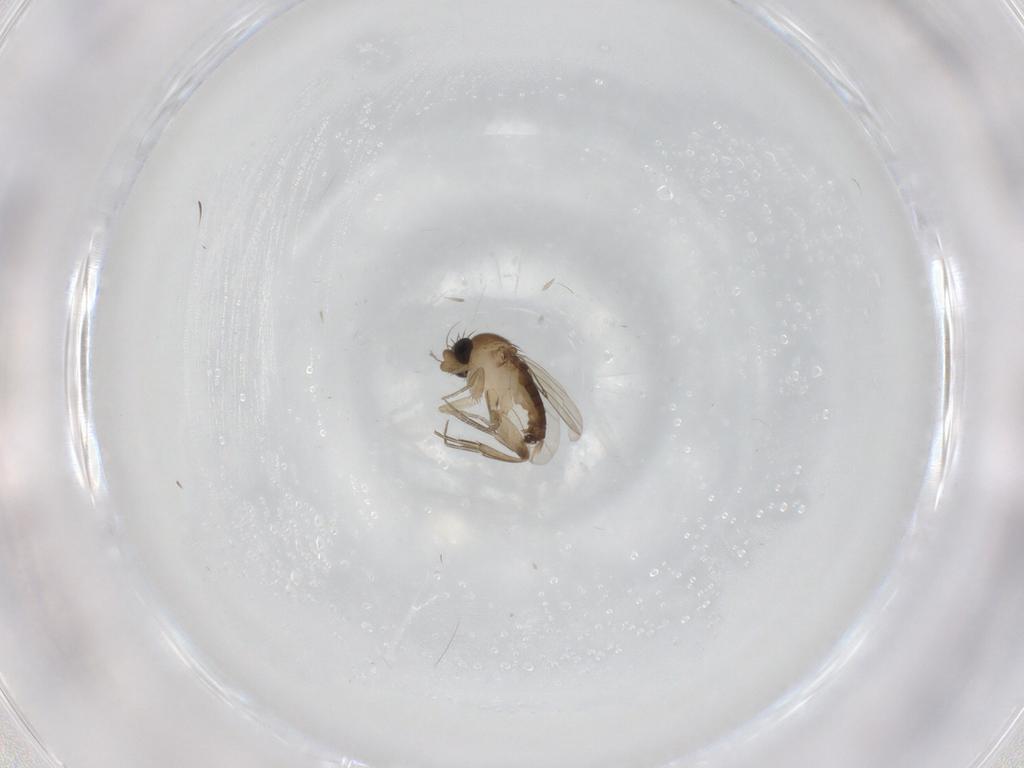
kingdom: Animalia
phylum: Arthropoda
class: Insecta
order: Diptera
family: Phoridae
